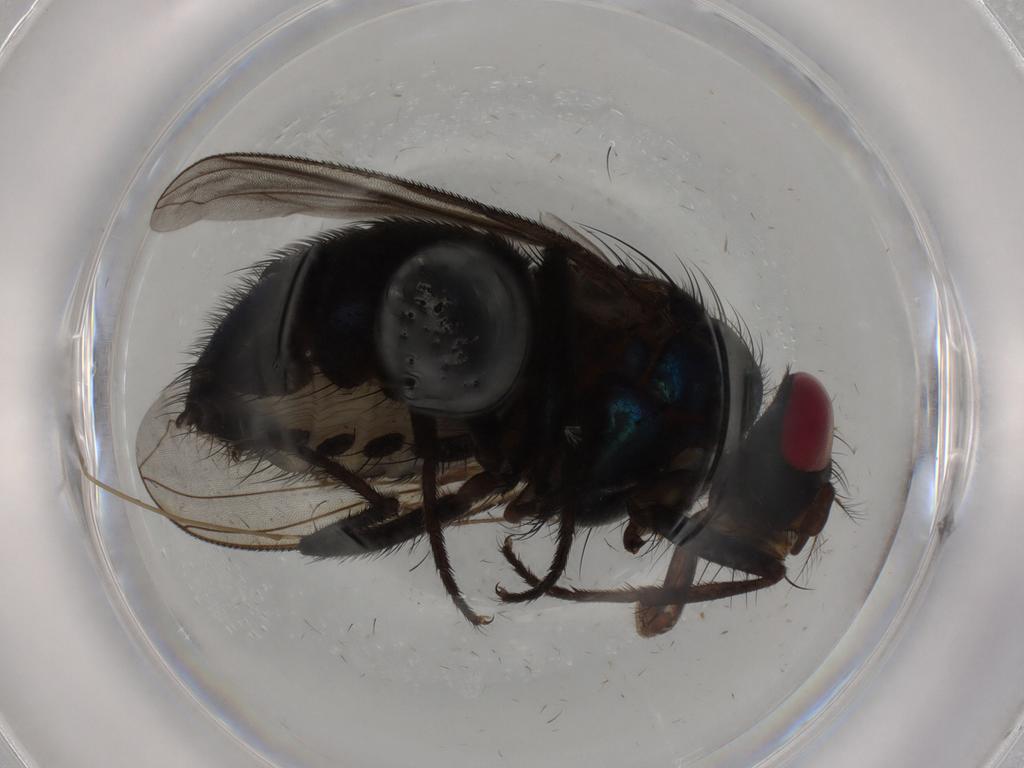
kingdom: Animalia
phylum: Arthropoda
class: Insecta
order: Diptera
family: Calliphoridae
